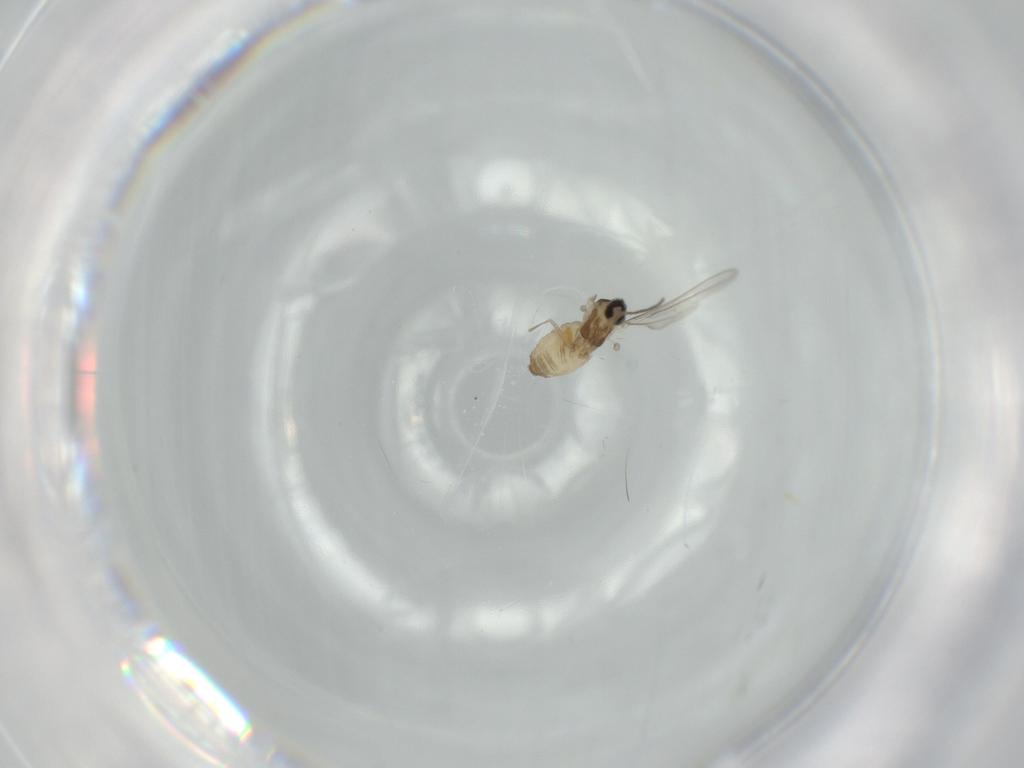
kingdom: Animalia
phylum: Arthropoda
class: Insecta
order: Diptera
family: Cecidomyiidae
